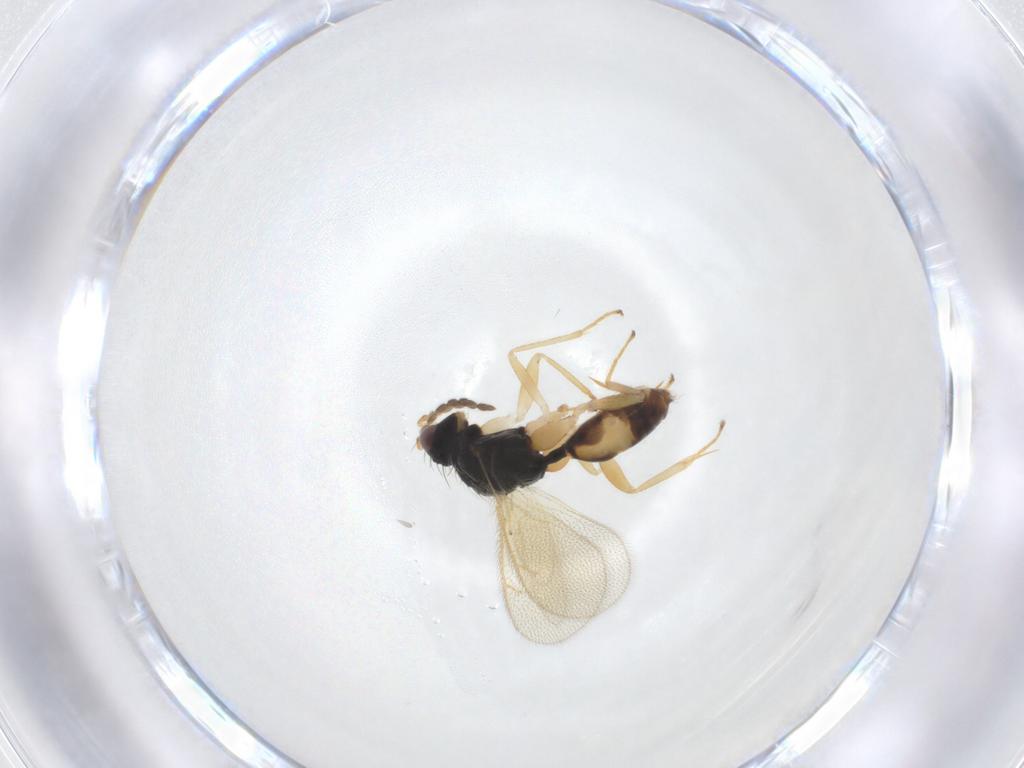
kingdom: Animalia
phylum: Arthropoda
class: Insecta
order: Hymenoptera
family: Eulophidae
